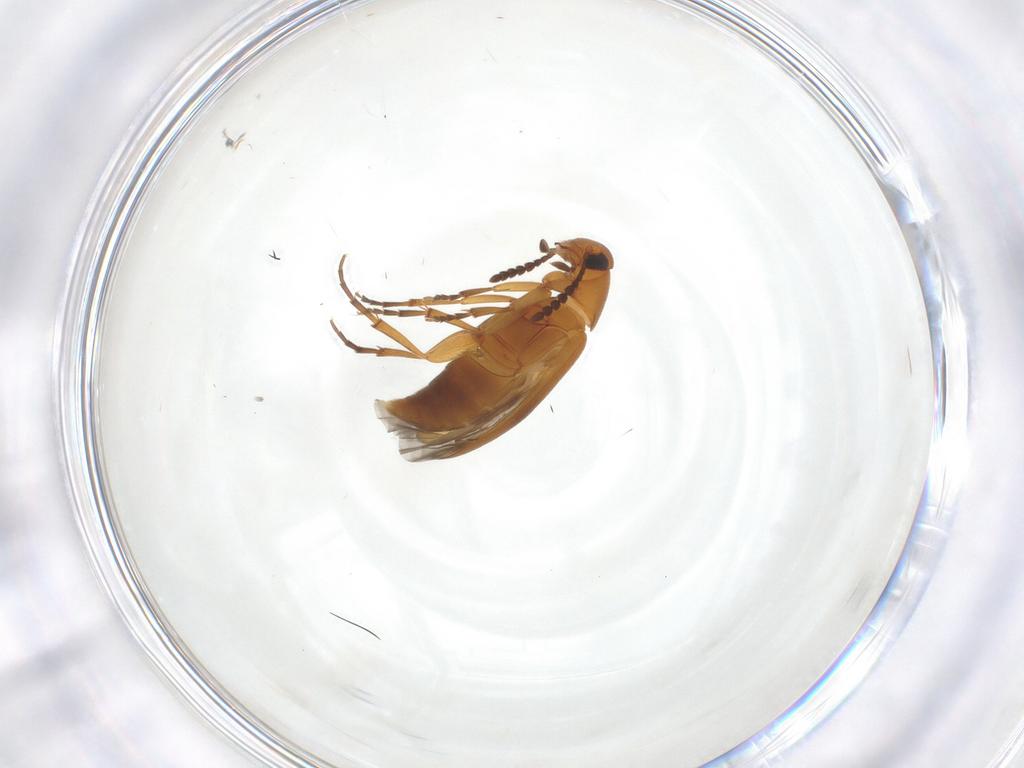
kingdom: Animalia
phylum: Arthropoda
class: Insecta
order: Coleoptera
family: Scraptiidae
